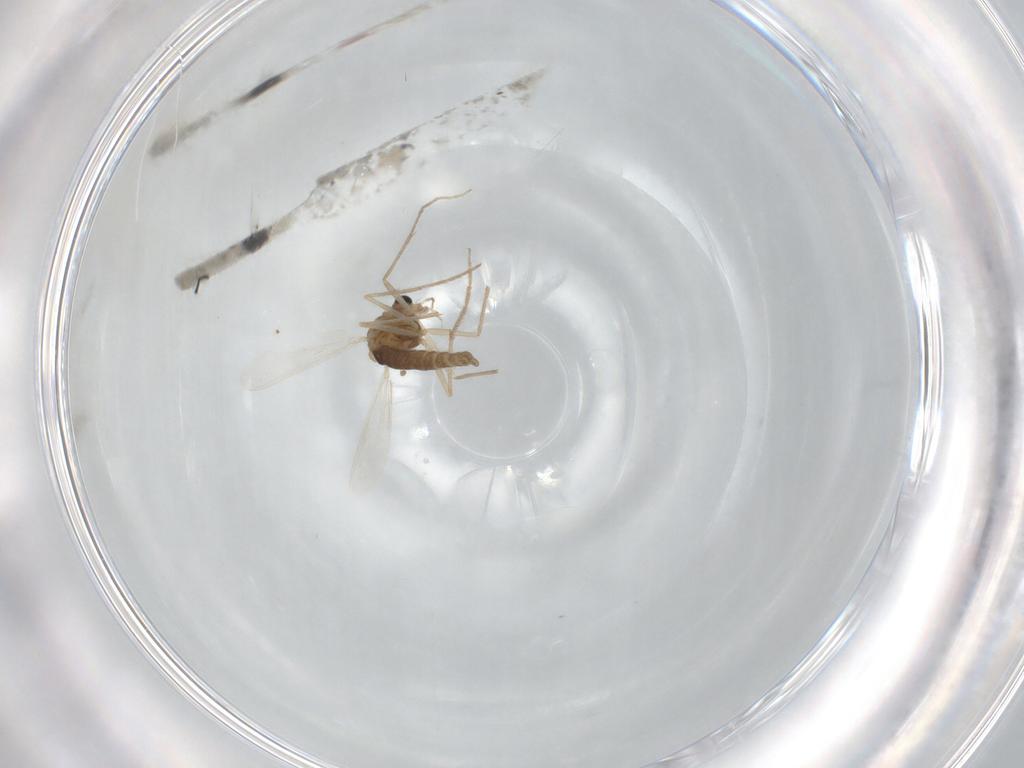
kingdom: Animalia
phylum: Arthropoda
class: Insecta
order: Diptera
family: Chironomidae
